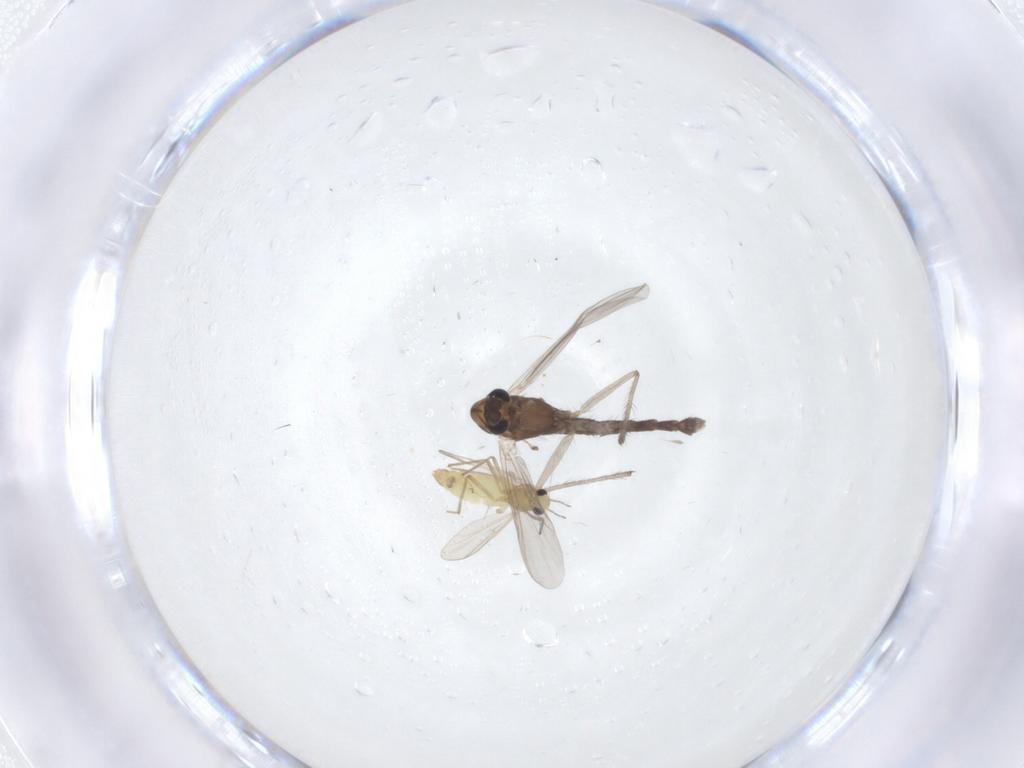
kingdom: Animalia
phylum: Arthropoda
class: Insecta
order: Diptera
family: Chironomidae
